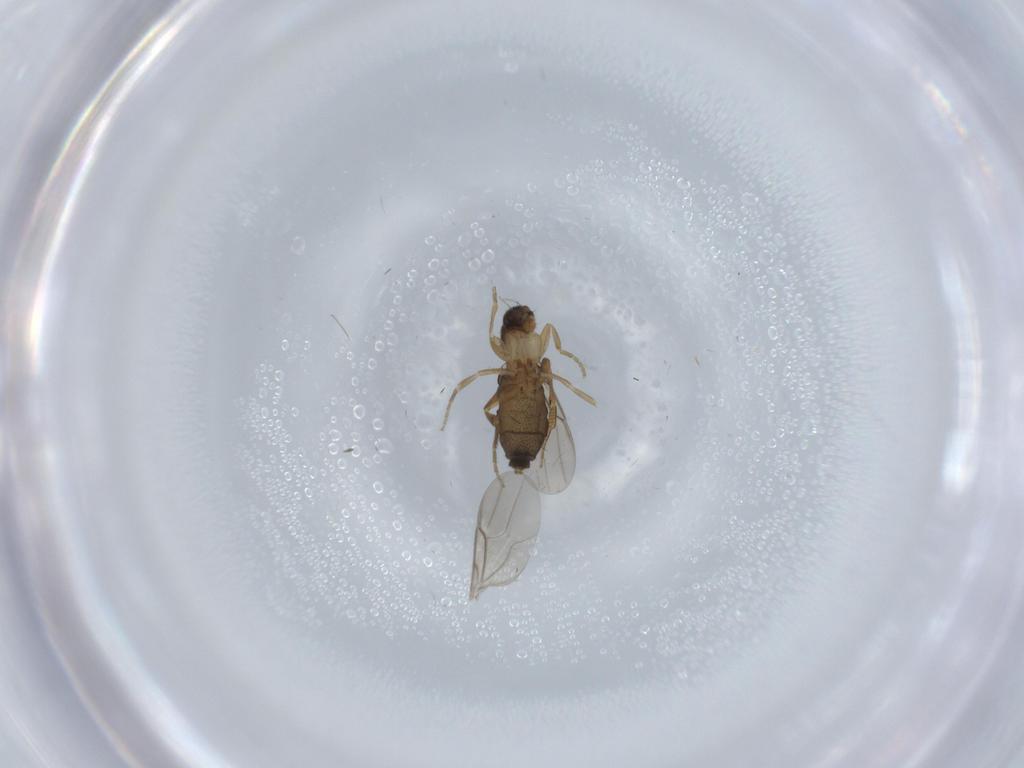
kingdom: Animalia
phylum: Arthropoda
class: Insecta
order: Diptera
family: Phoridae
